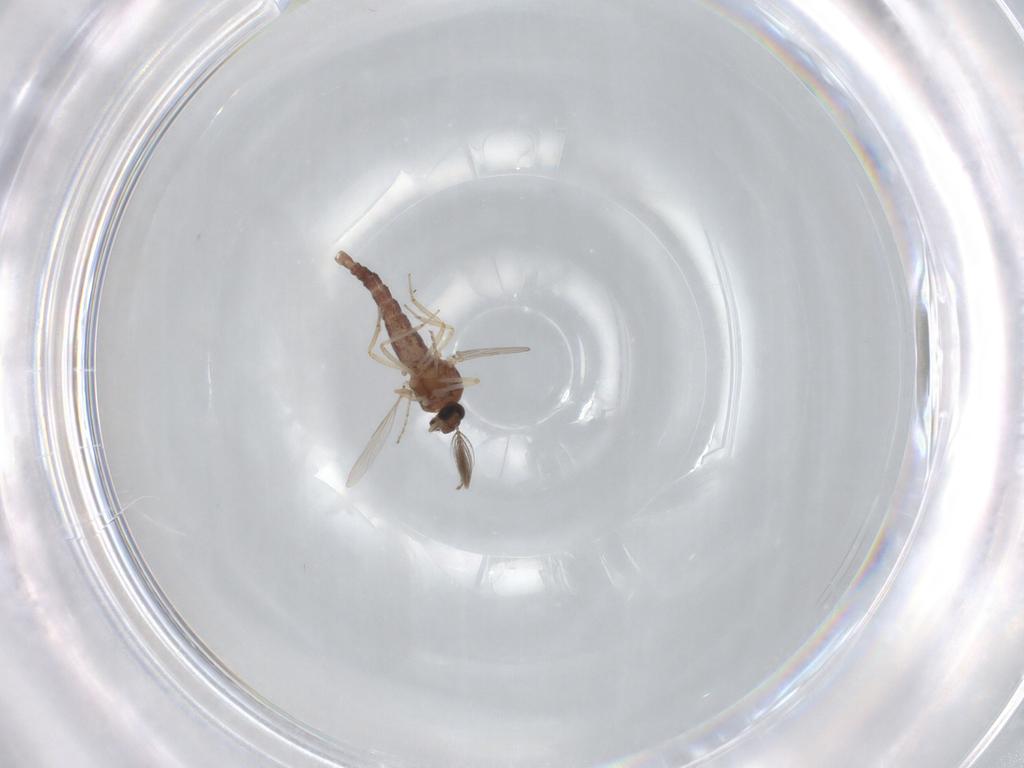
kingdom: Animalia
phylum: Arthropoda
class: Insecta
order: Diptera
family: Ceratopogonidae
